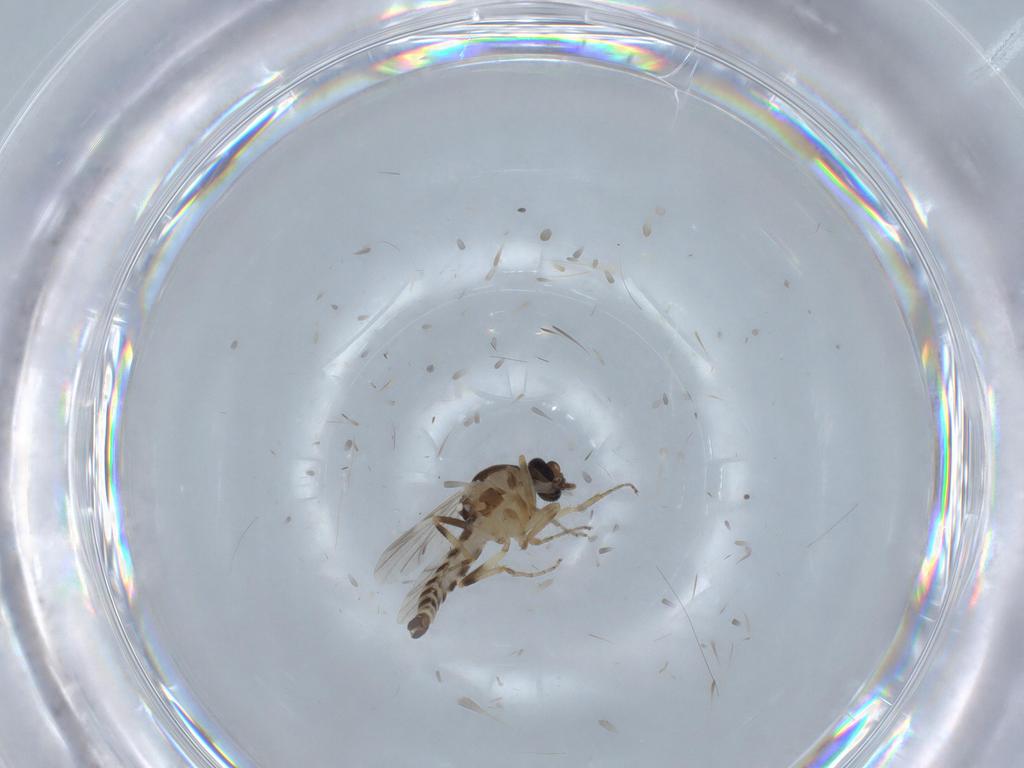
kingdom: Animalia
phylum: Arthropoda
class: Insecta
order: Diptera
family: Ceratopogonidae
